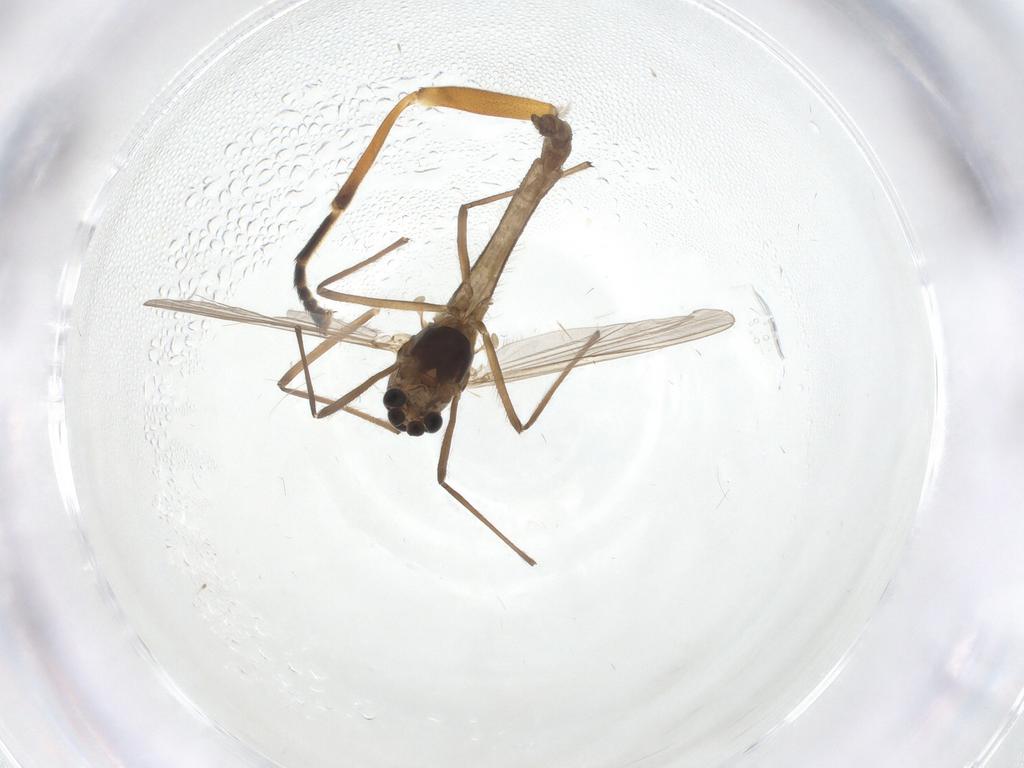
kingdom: Animalia
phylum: Arthropoda
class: Insecta
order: Diptera
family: Chironomidae
